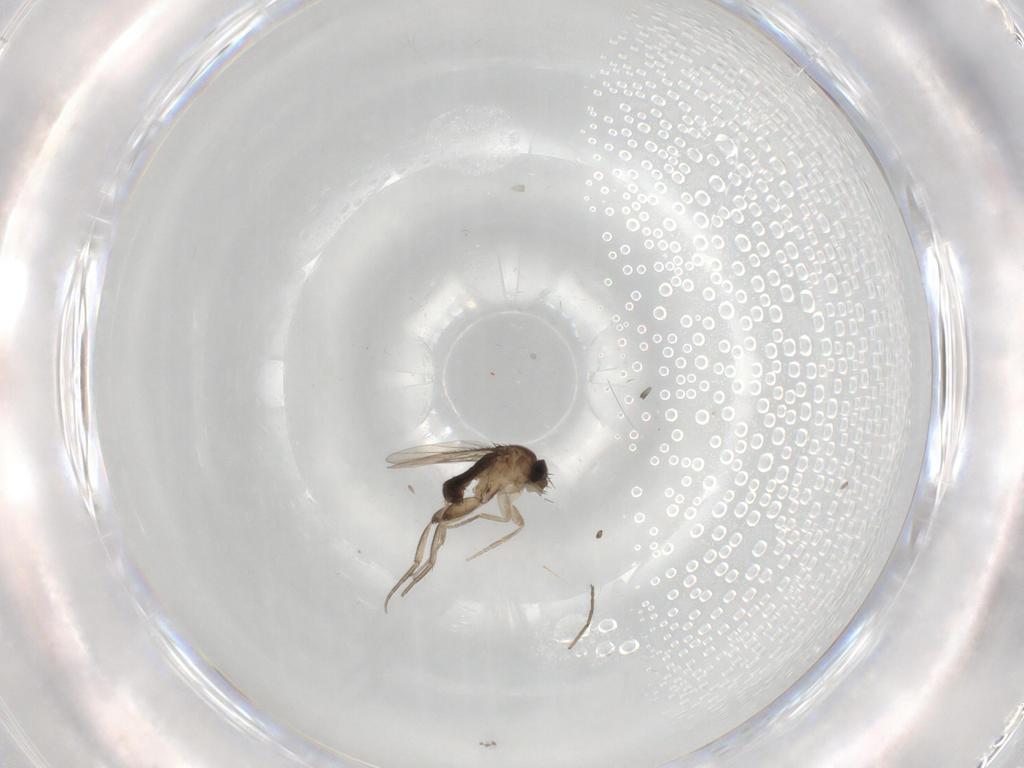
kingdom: Animalia
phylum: Arthropoda
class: Insecta
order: Diptera
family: Phoridae
